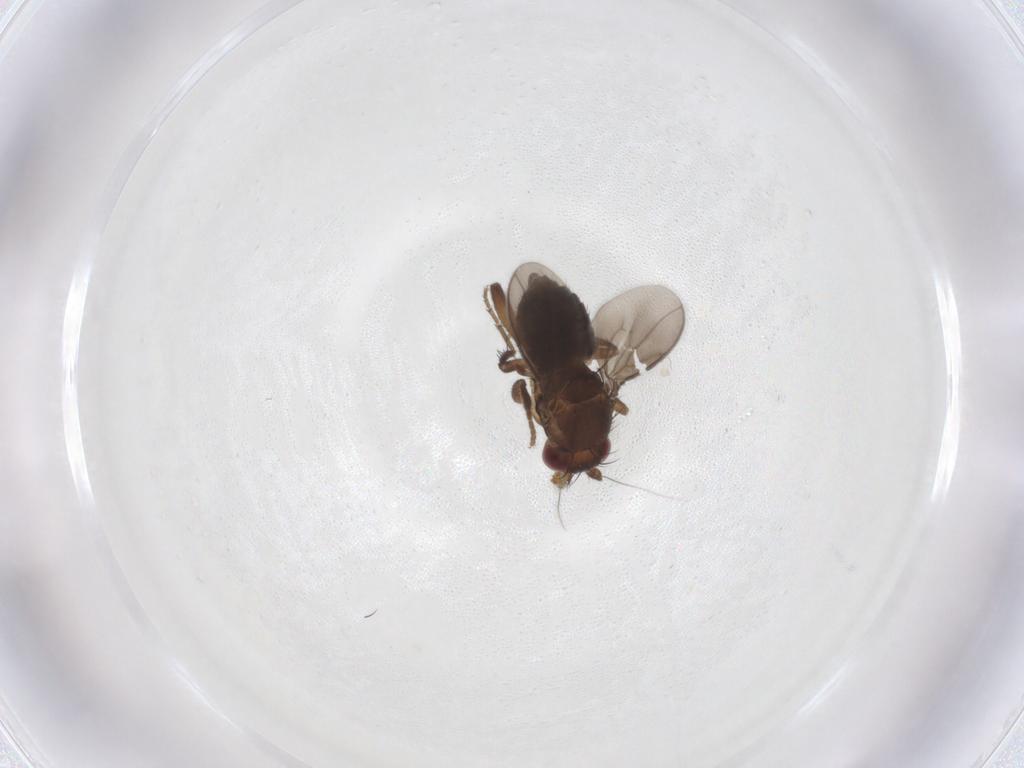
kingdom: Animalia
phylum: Arthropoda
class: Insecta
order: Diptera
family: Sphaeroceridae
